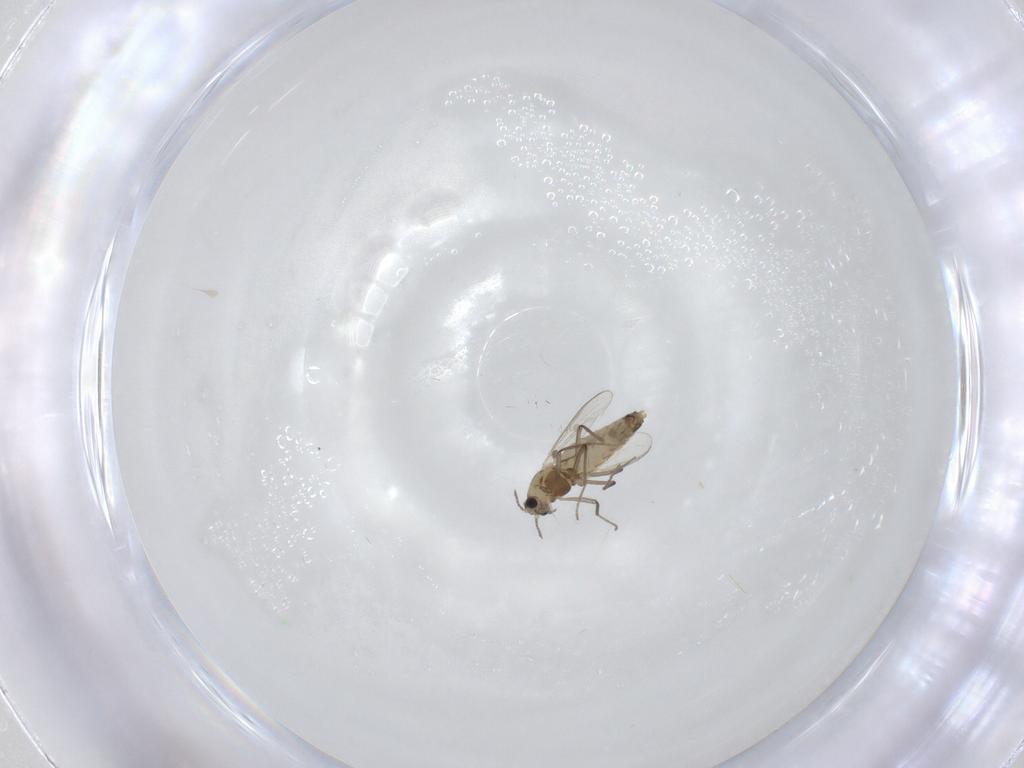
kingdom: Animalia
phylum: Arthropoda
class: Insecta
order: Diptera
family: Chironomidae
